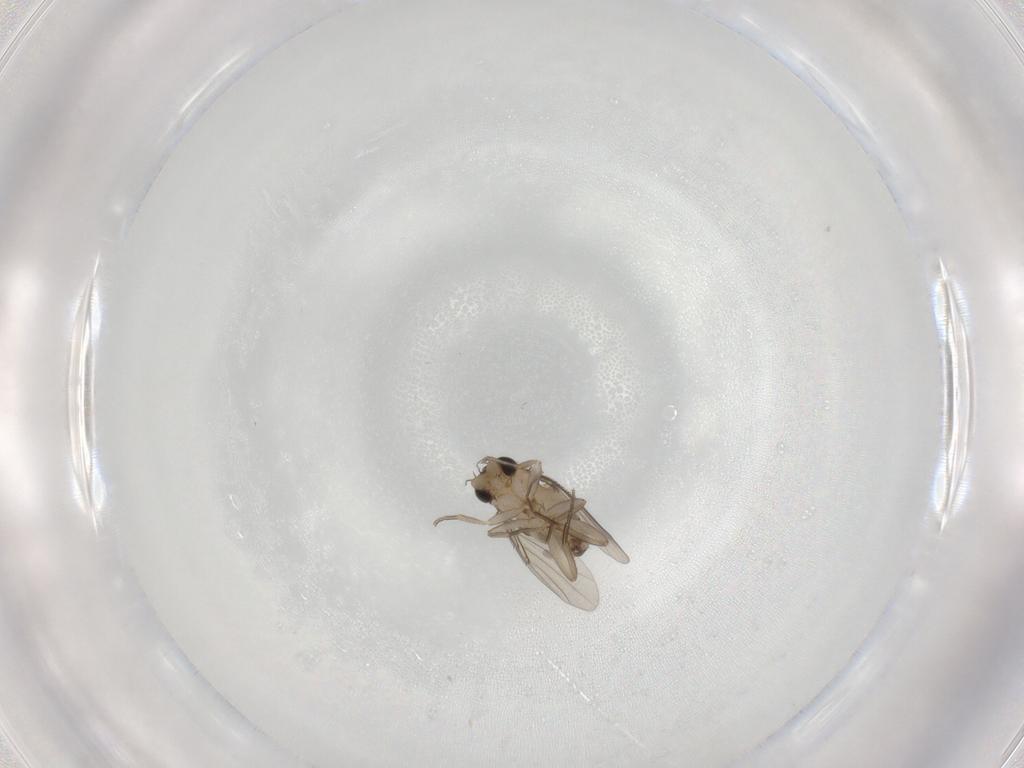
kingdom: Animalia
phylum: Arthropoda
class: Insecta
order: Diptera
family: Phoridae
